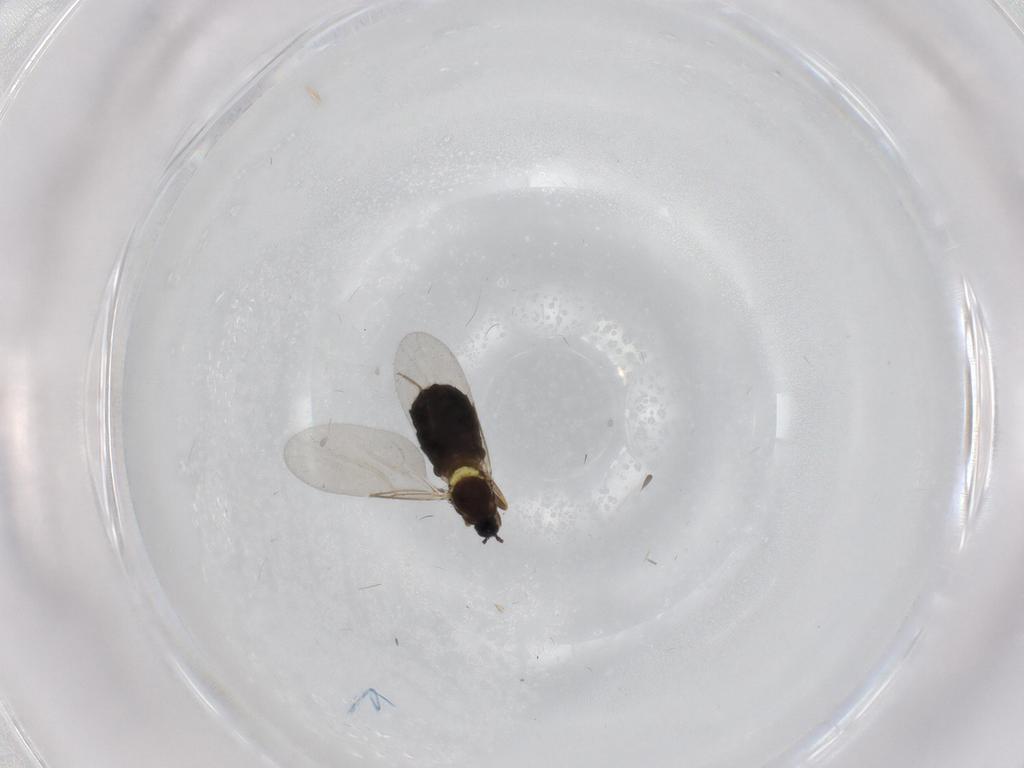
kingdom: Animalia
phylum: Arthropoda
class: Insecta
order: Diptera
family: Scatopsidae
